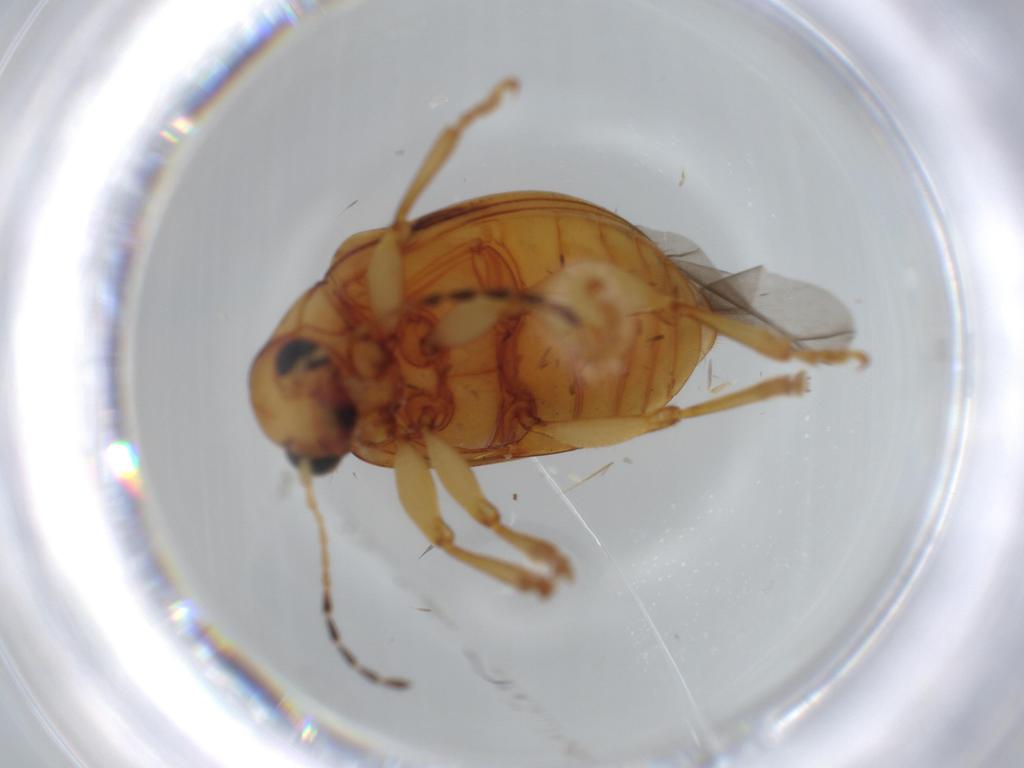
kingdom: Animalia
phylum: Arthropoda
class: Insecta
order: Coleoptera
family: Chrysomelidae
